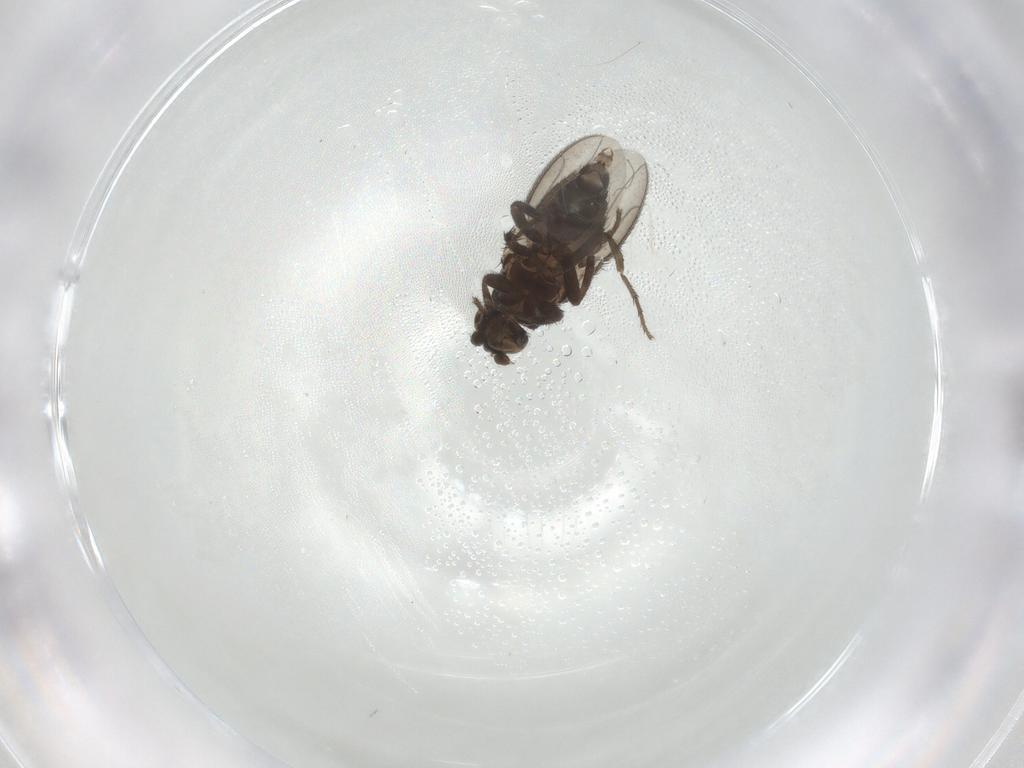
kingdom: Animalia
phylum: Arthropoda
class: Insecta
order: Diptera
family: Sphaeroceridae
